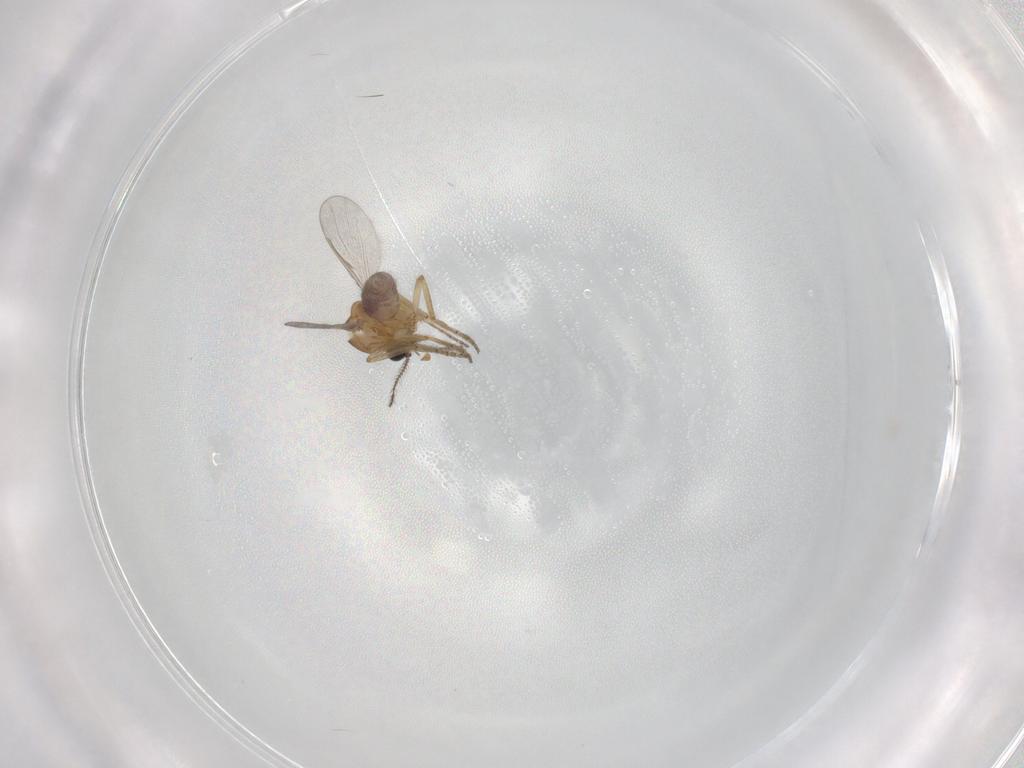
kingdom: Animalia
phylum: Arthropoda
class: Insecta
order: Diptera
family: Ceratopogonidae
